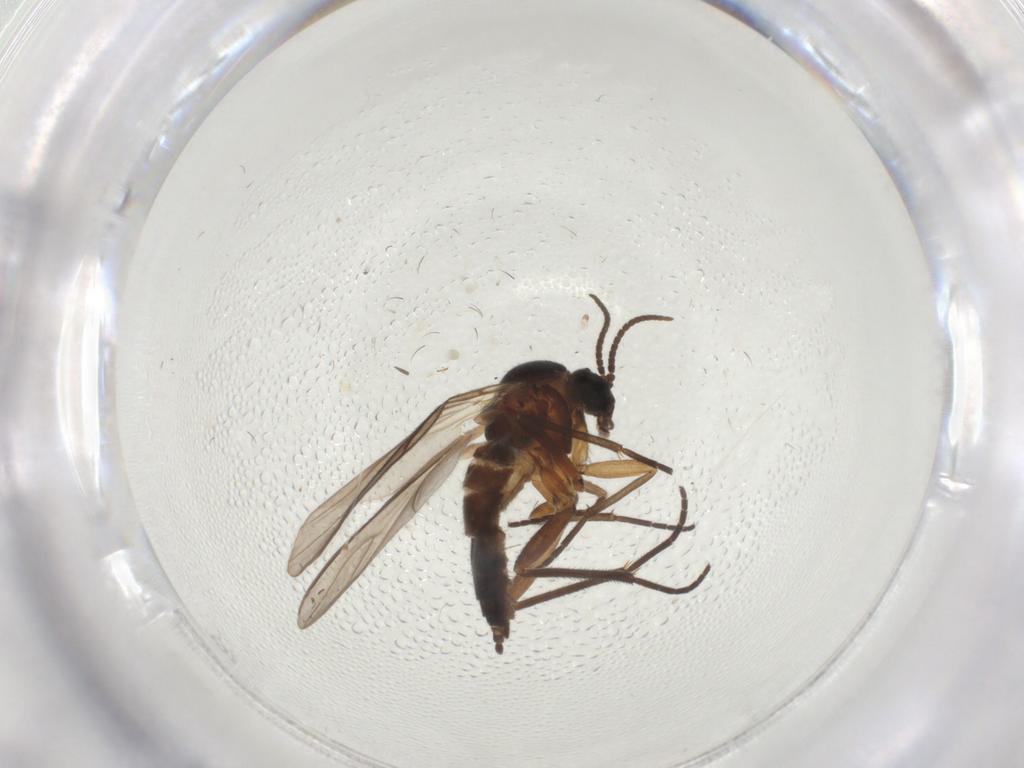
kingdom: Animalia
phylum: Arthropoda
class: Insecta
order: Diptera
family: Sciaridae
